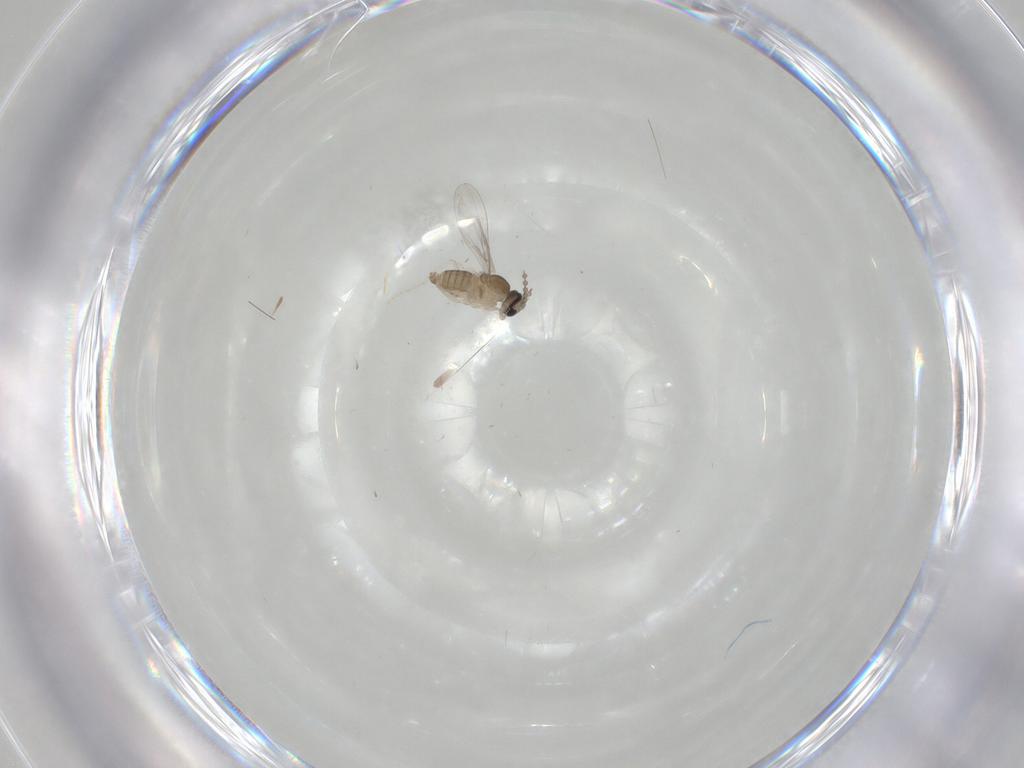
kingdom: Animalia
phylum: Arthropoda
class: Insecta
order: Diptera
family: Cecidomyiidae
